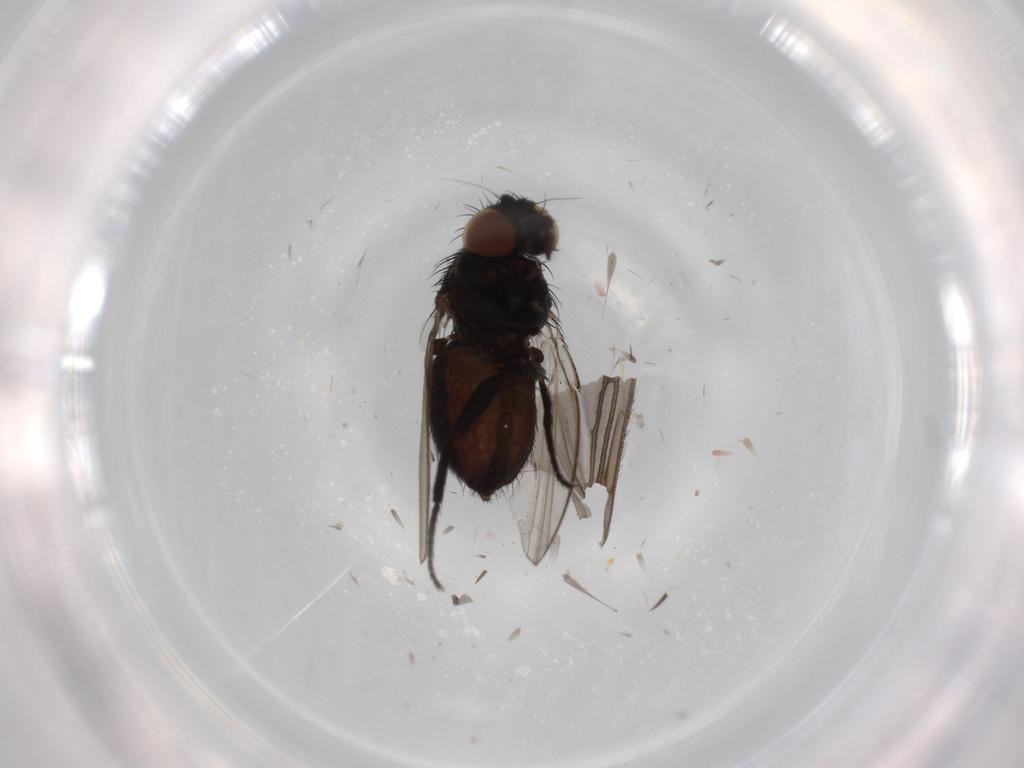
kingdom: Animalia
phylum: Arthropoda
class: Insecta
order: Diptera
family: Milichiidae
